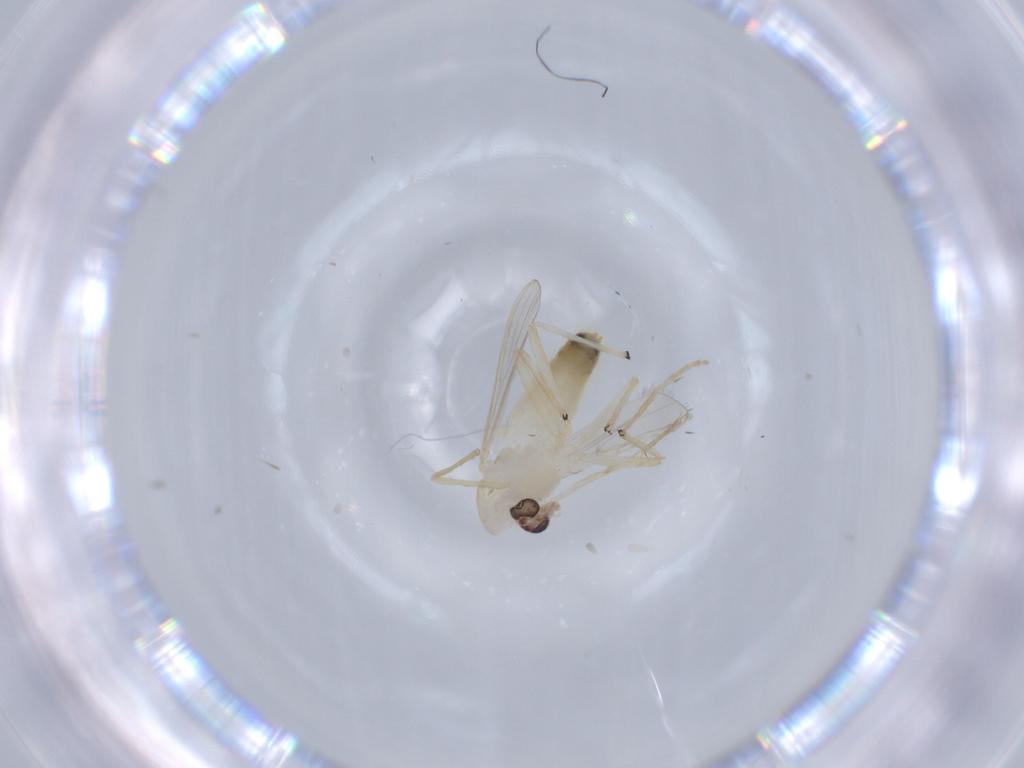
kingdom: Animalia
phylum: Arthropoda
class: Insecta
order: Diptera
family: Chironomidae
